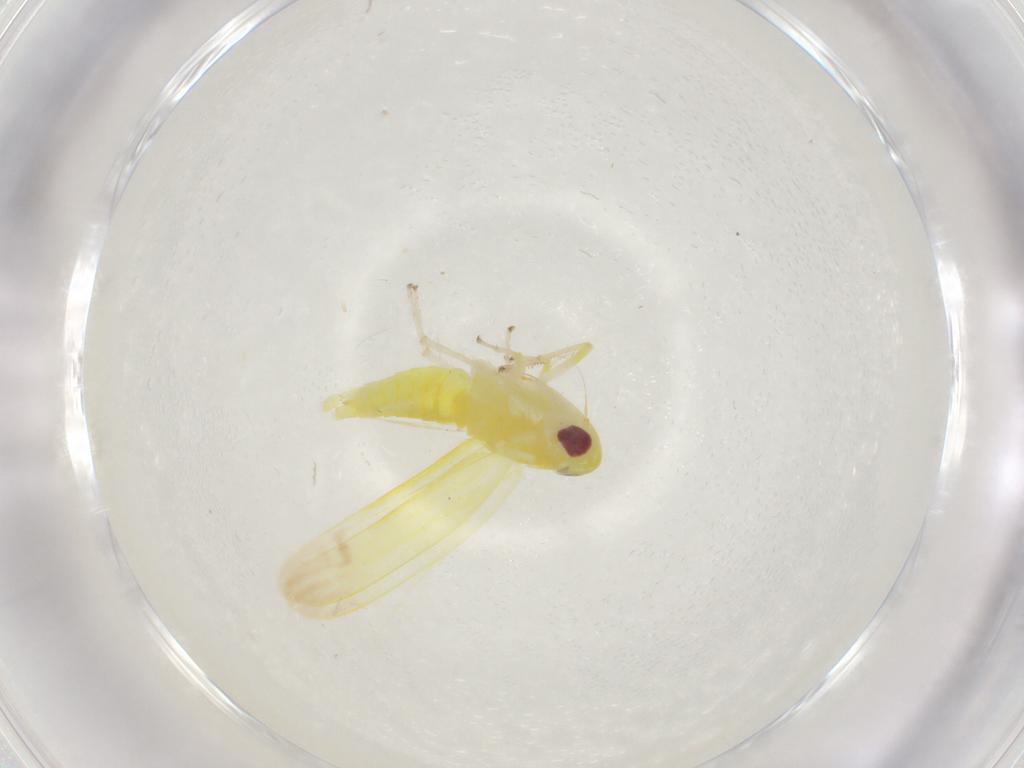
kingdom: Animalia
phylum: Arthropoda
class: Insecta
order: Hemiptera
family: Cicadellidae
